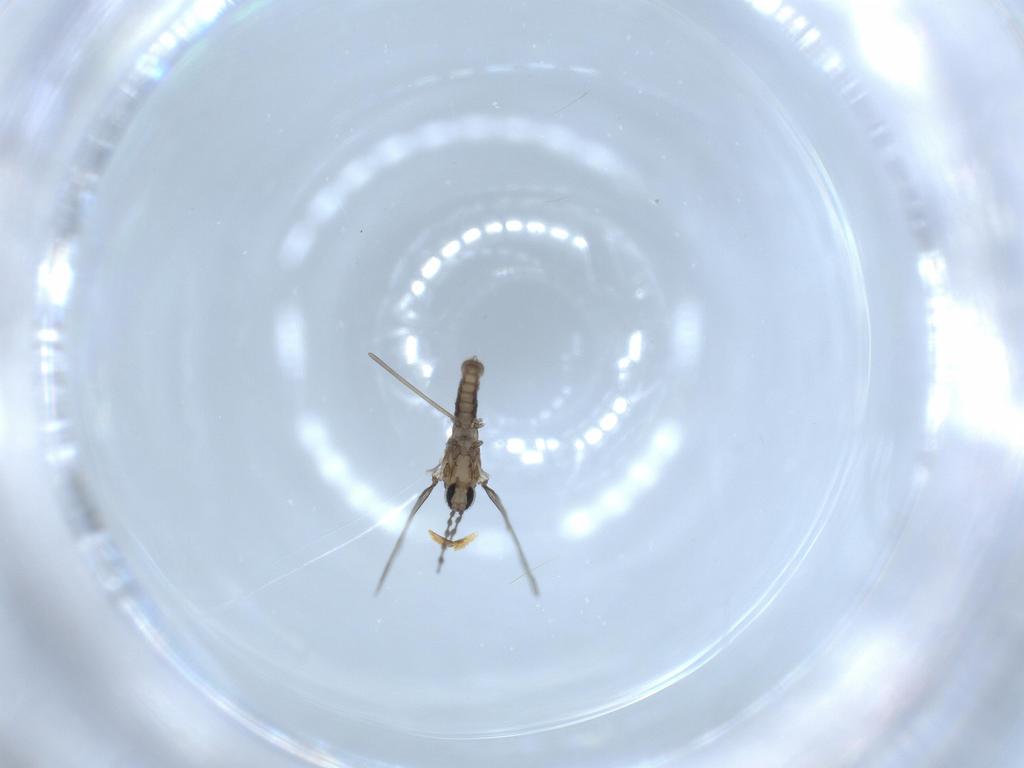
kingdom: Animalia
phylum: Arthropoda
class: Insecta
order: Diptera
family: Cecidomyiidae
